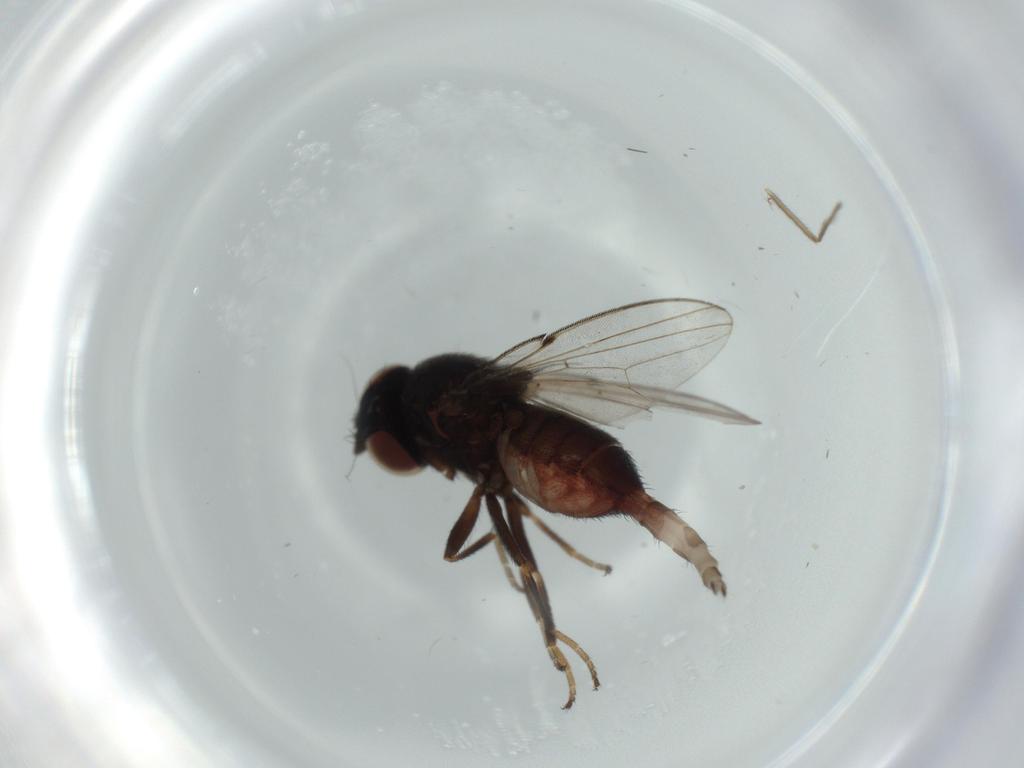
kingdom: Animalia
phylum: Arthropoda
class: Insecta
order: Diptera
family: Milichiidae
